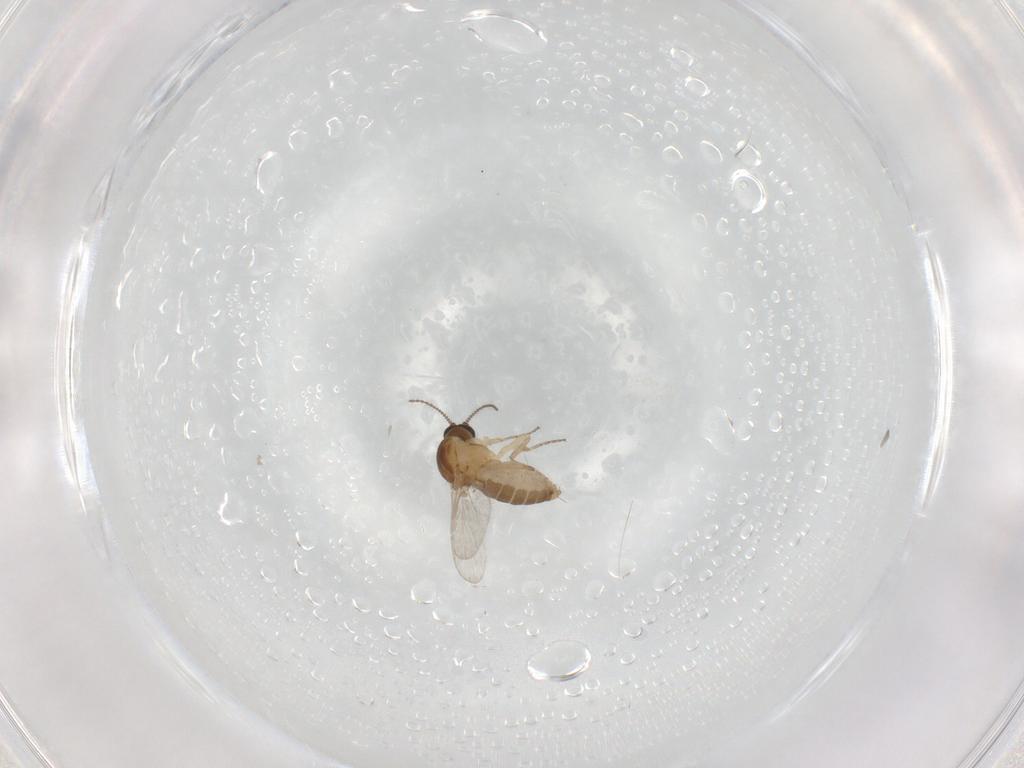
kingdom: Animalia
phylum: Arthropoda
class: Insecta
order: Diptera
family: Ceratopogonidae
